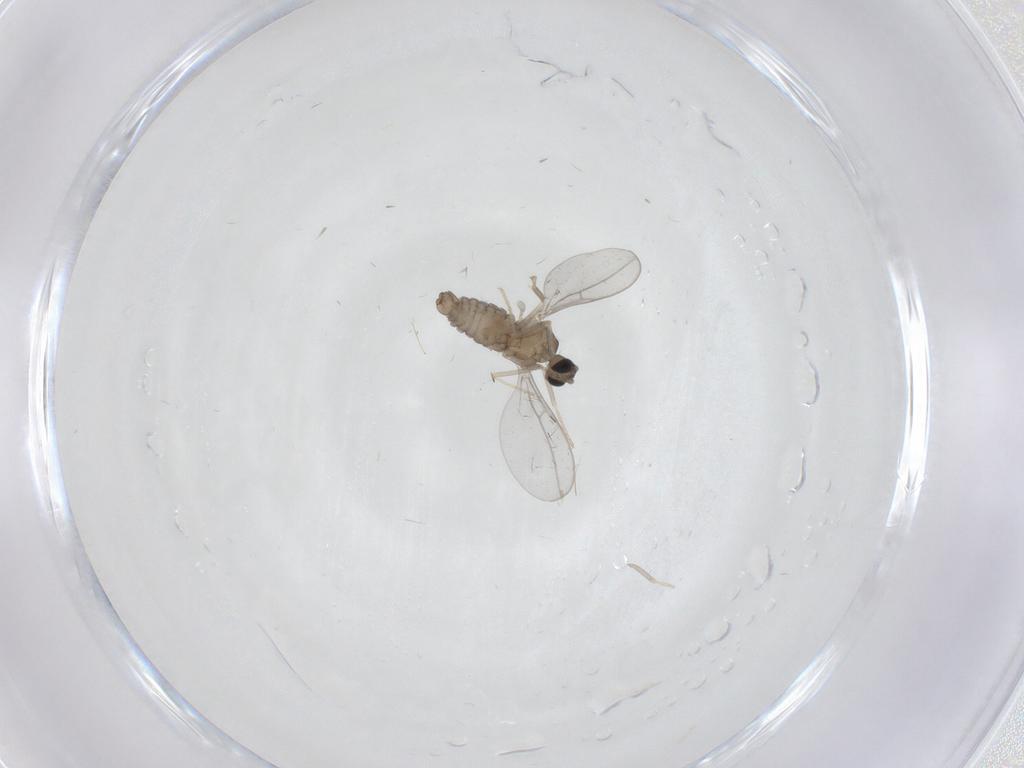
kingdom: Animalia
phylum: Arthropoda
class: Insecta
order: Diptera
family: Cecidomyiidae
